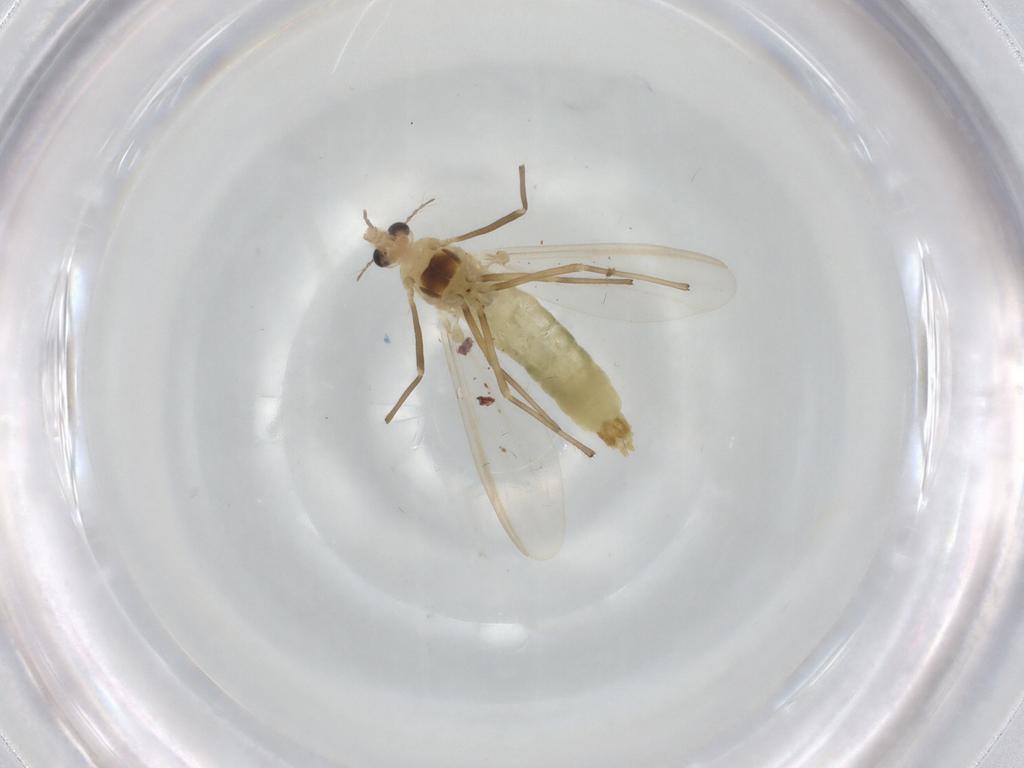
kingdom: Animalia
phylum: Arthropoda
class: Insecta
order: Diptera
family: Chironomidae
